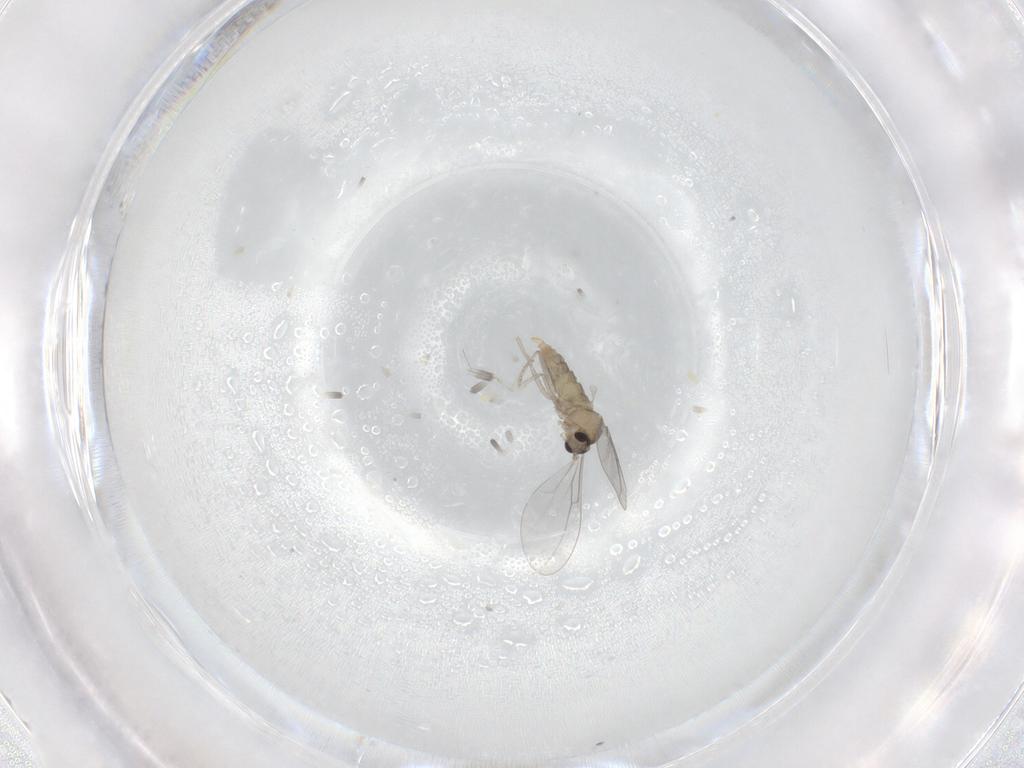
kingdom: Animalia
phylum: Arthropoda
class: Insecta
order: Diptera
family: Cecidomyiidae
